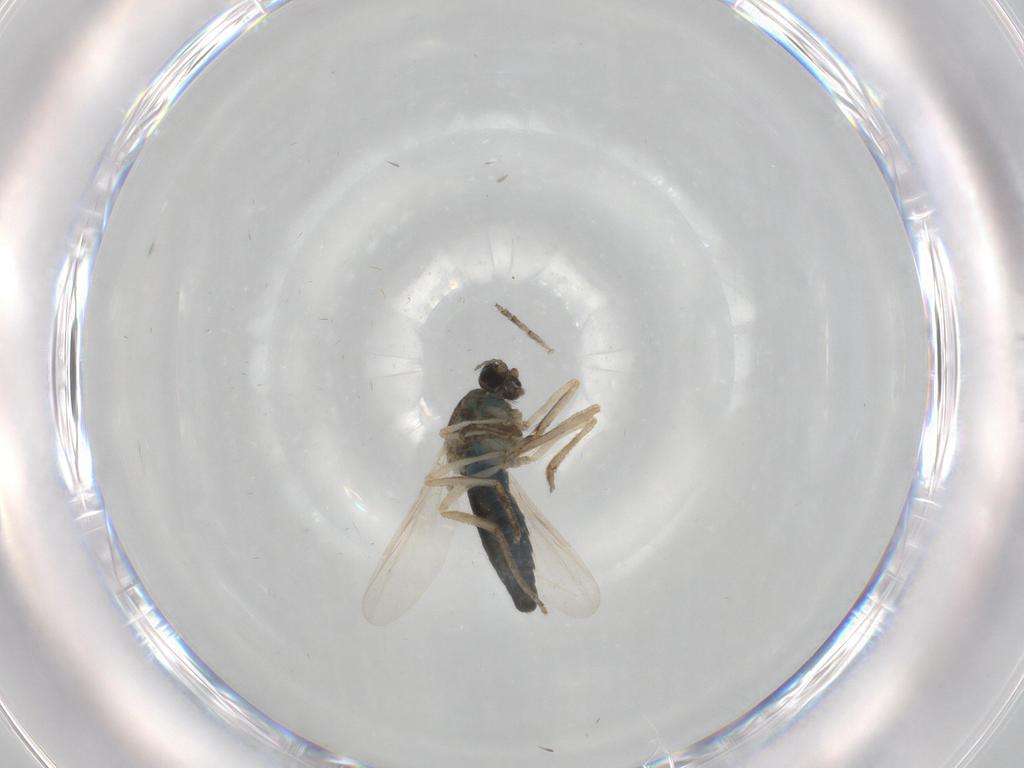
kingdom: Animalia
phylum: Arthropoda
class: Insecta
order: Diptera
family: Ceratopogonidae
